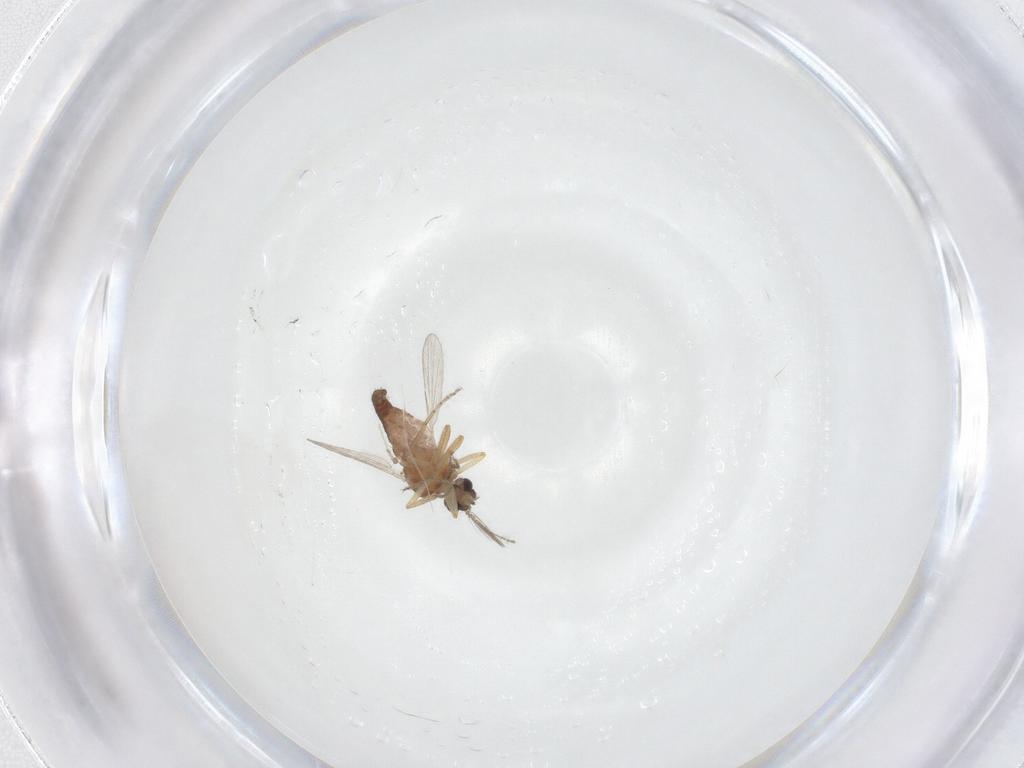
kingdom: Animalia
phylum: Arthropoda
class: Insecta
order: Diptera
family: Ceratopogonidae
